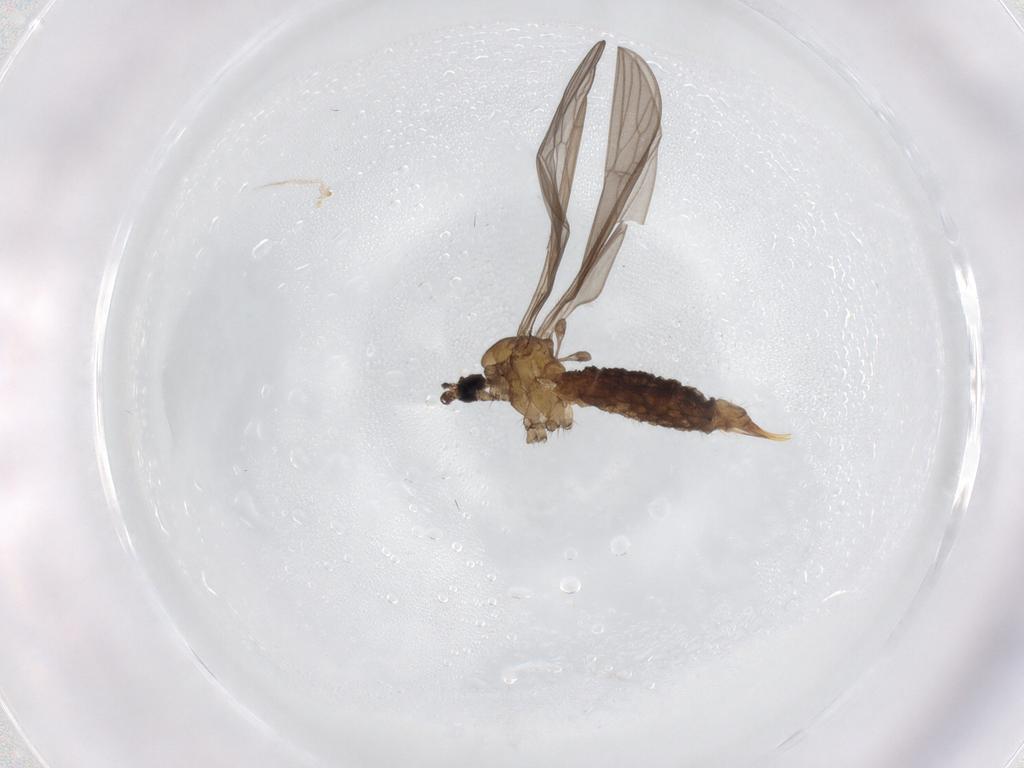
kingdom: Animalia
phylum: Arthropoda
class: Insecta
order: Diptera
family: Limoniidae
